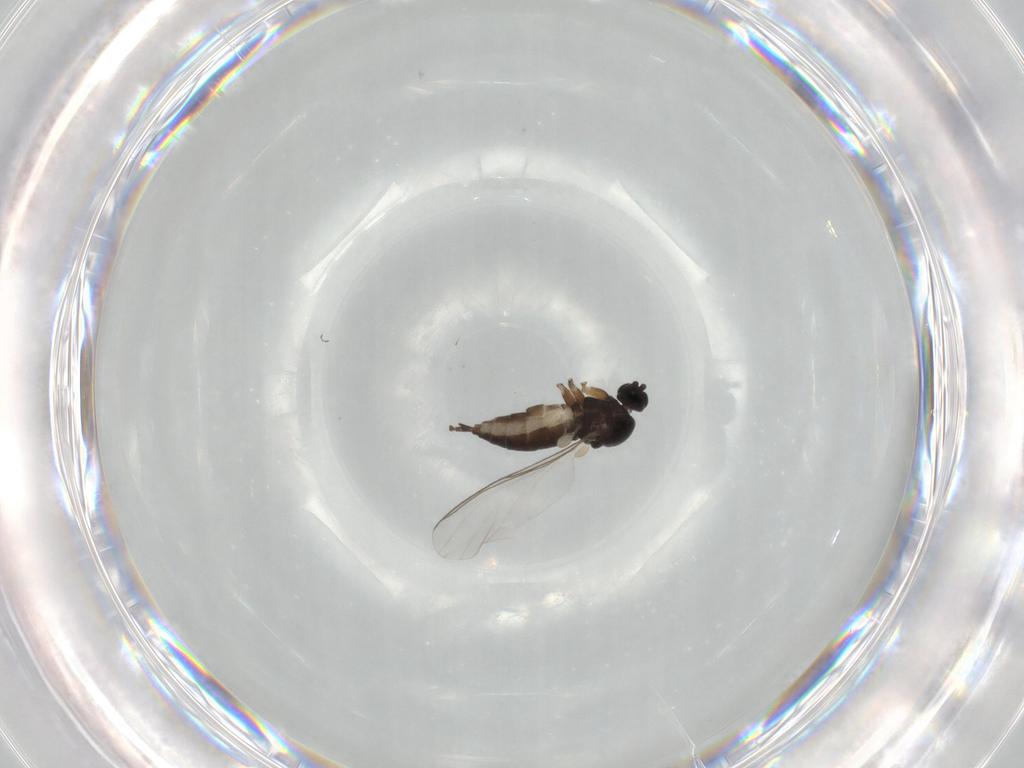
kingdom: Animalia
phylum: Arthropoda
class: Insecta
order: Diptera
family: Sciaridae
